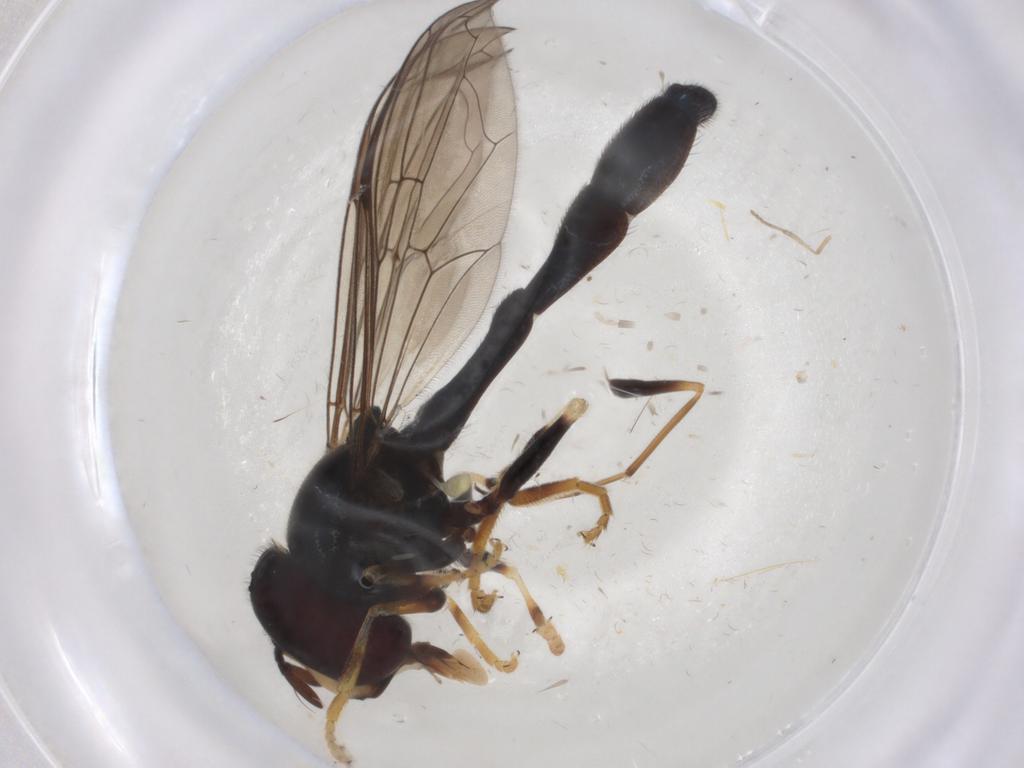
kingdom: Animalia
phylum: Arthropoda
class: Insecta
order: Diptera
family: Syrphidae
